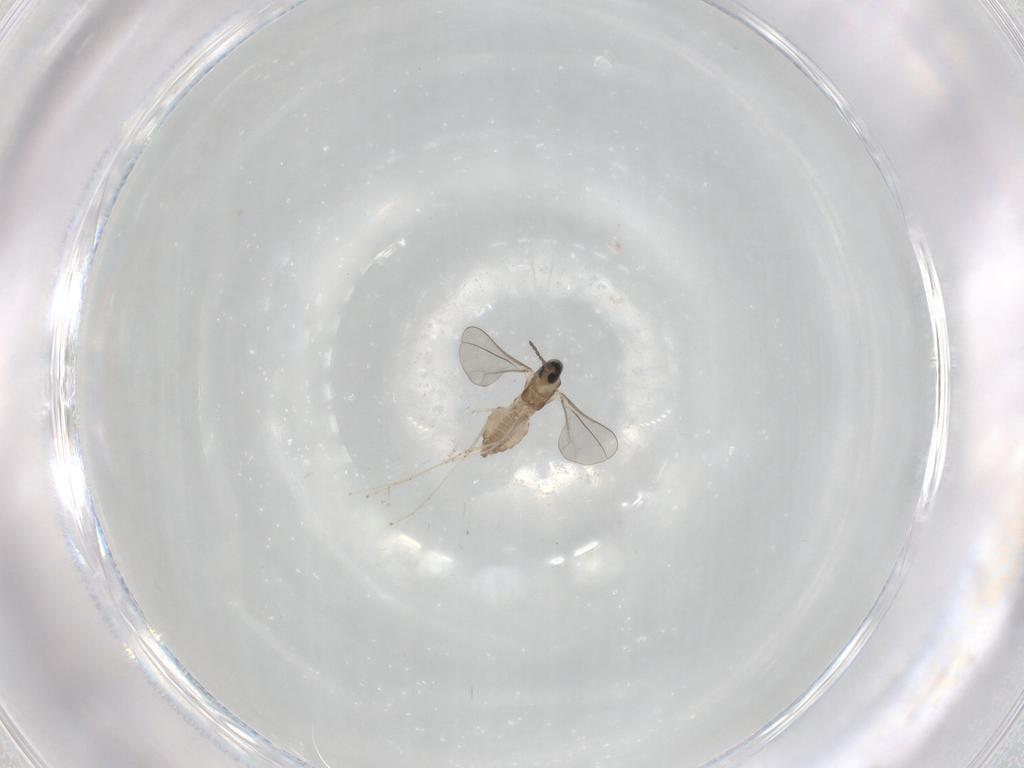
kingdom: Animalia
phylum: Arthropoda
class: Insecta
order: Diptera
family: Cecidomyiidae
